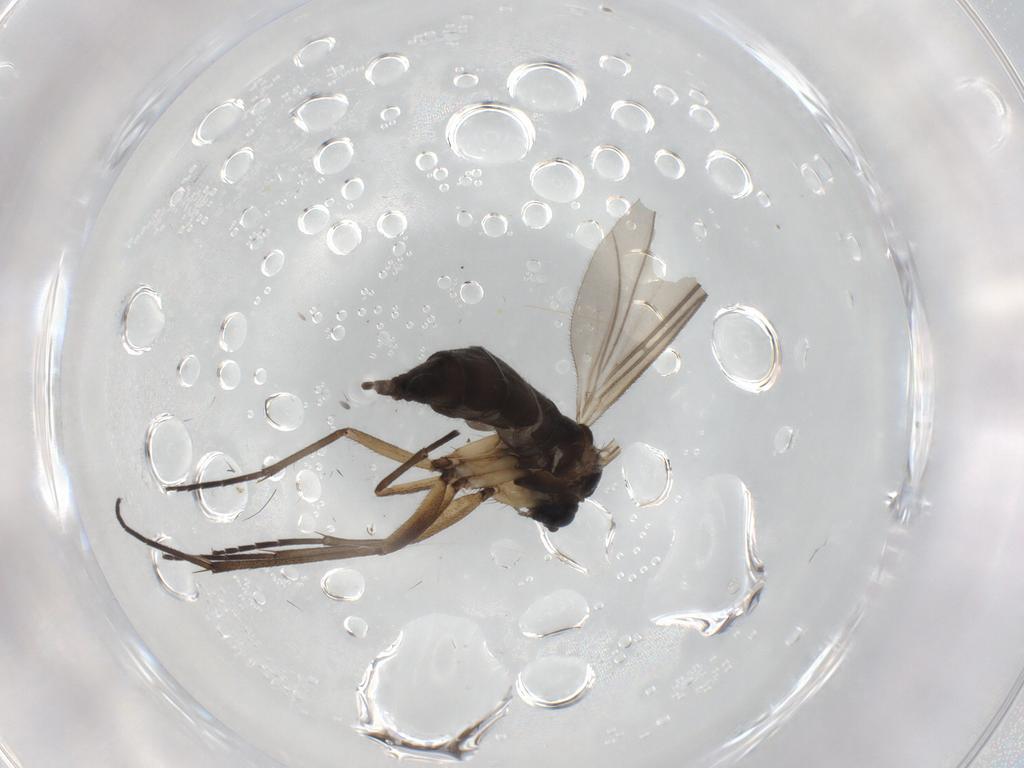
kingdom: Animalia
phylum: Arthropoda
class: Insecta
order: Diptera
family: Sciaridae
